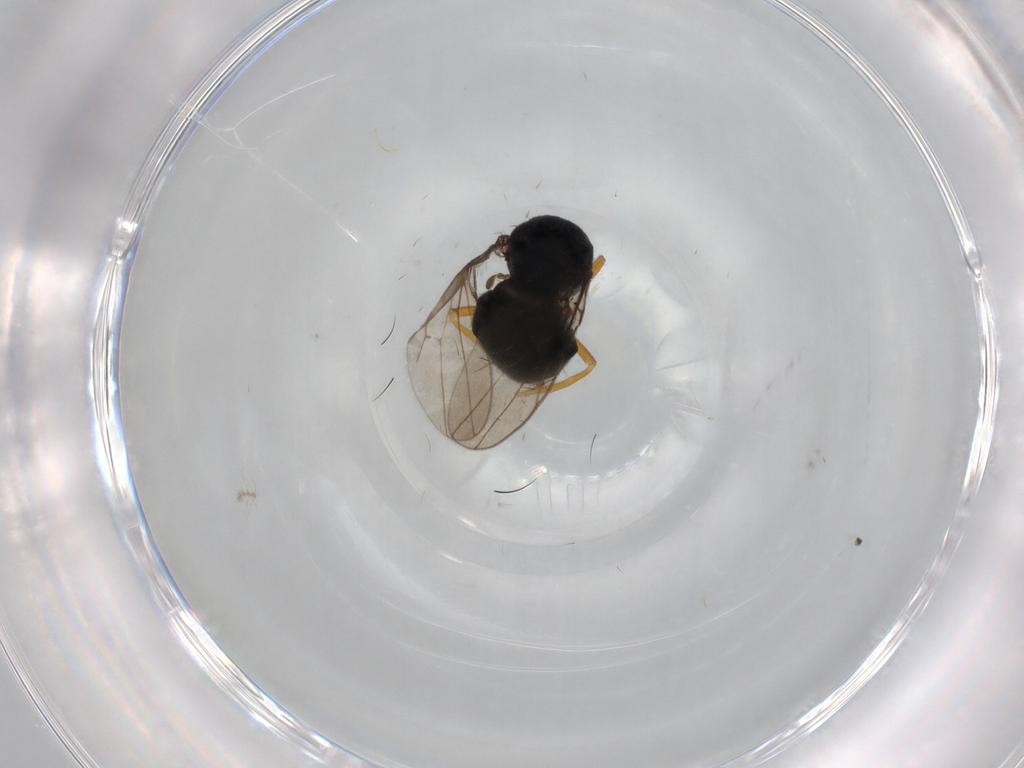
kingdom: Animalia
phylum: Arthropoda
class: Insecta
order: Diptera
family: Ephydridae
